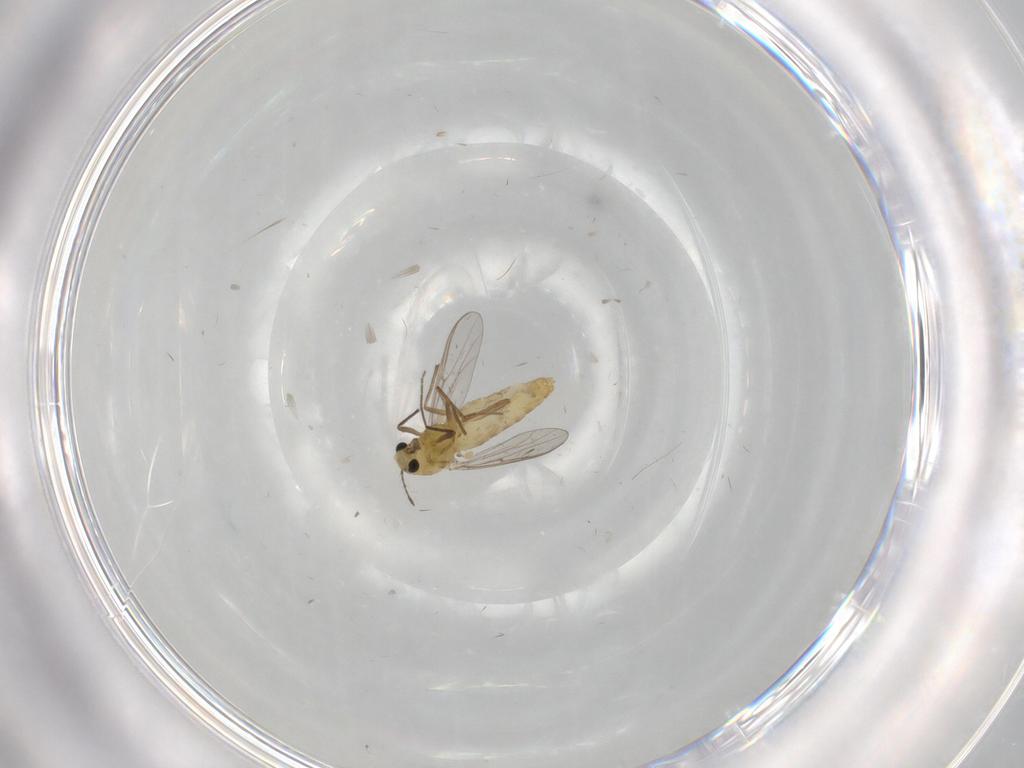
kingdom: Animalia
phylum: Arthropoda
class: Insecta
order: Diptera
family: Chironomidae
